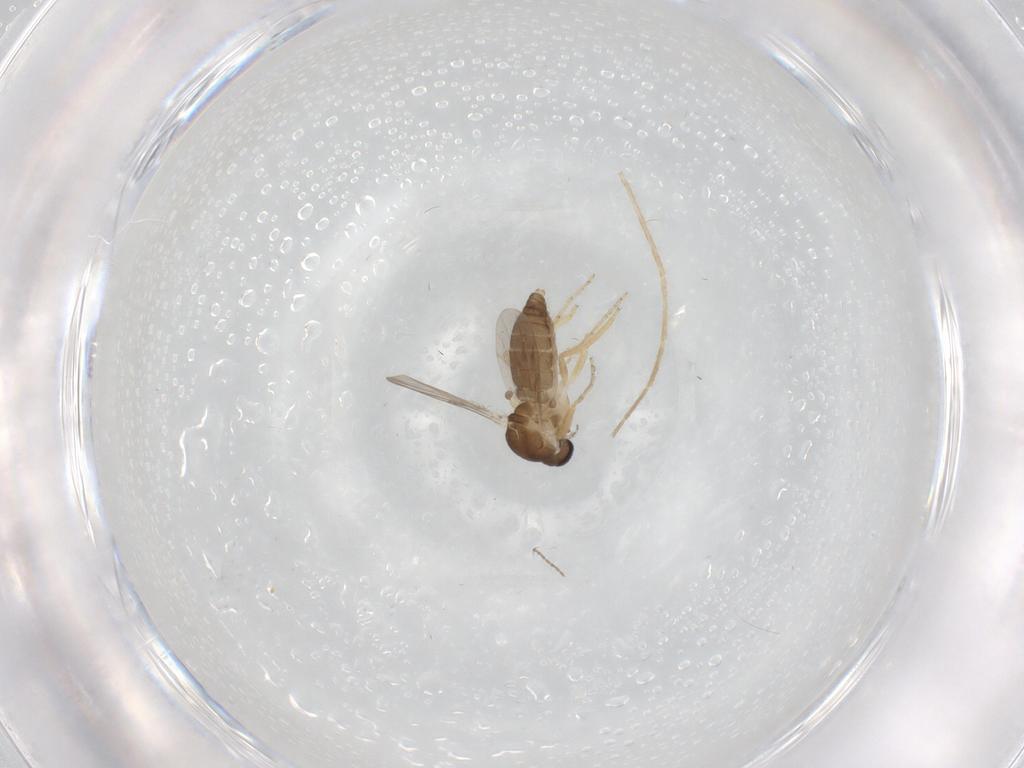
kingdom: Animalia
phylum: Arthropoda
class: Insecta
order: Diptera
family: Ceratopogonidae
